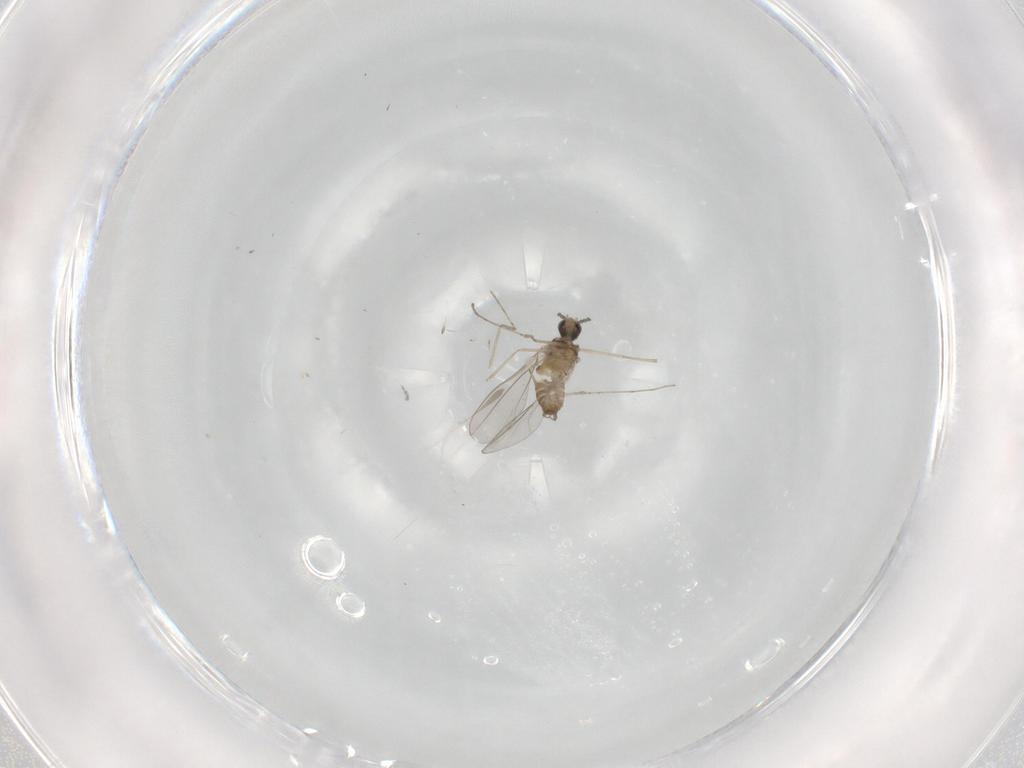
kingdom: Animalia
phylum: Arthropoda
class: Insecta
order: Diptera
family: Cecidomyiidae
